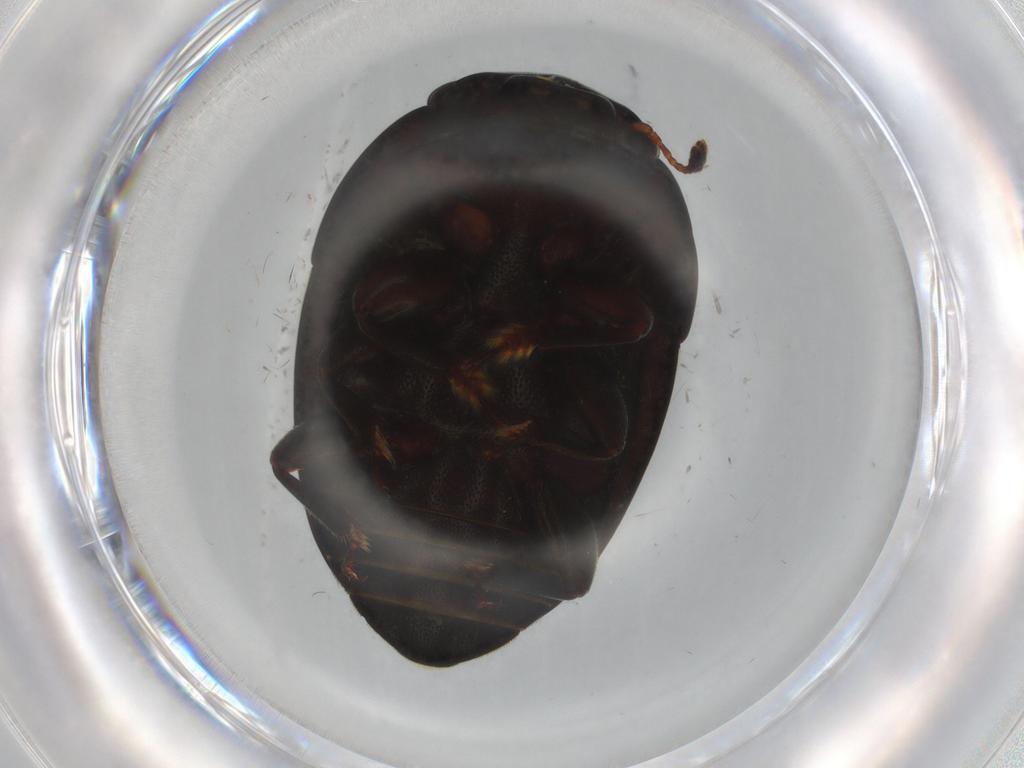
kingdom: Animalia
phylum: Arthropoda
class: Insecta
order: Coleoptera
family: Nitidulidae
